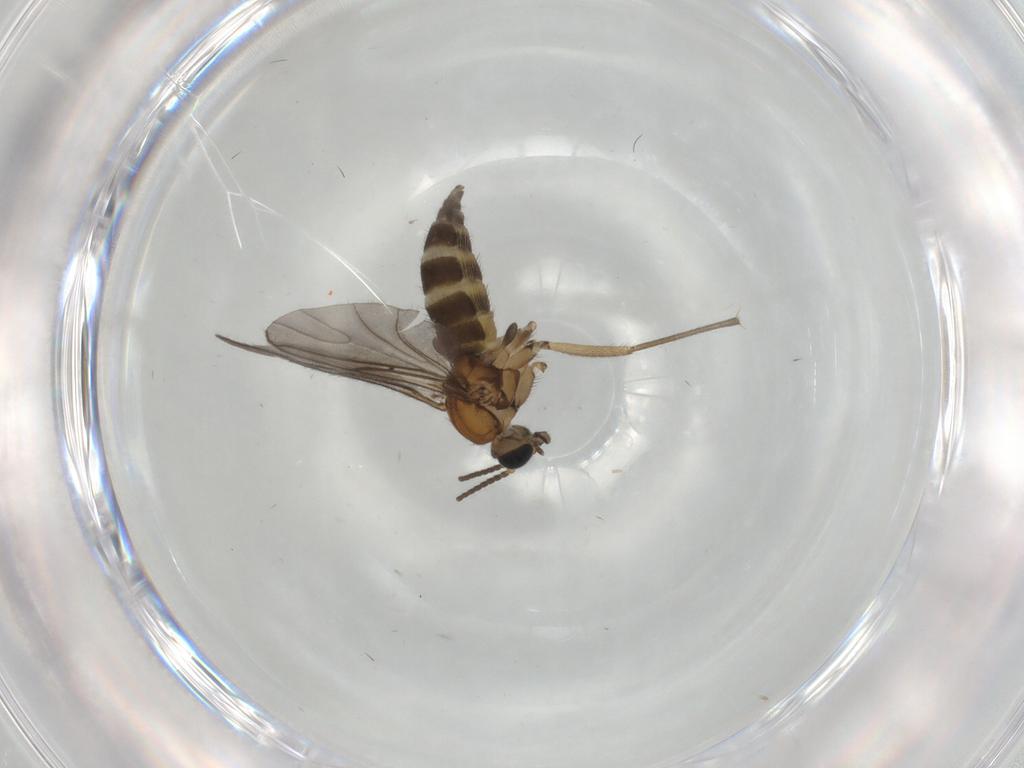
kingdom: Animalia
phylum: Arthropoda
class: Insecta
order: Diptera
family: Sciaridae
